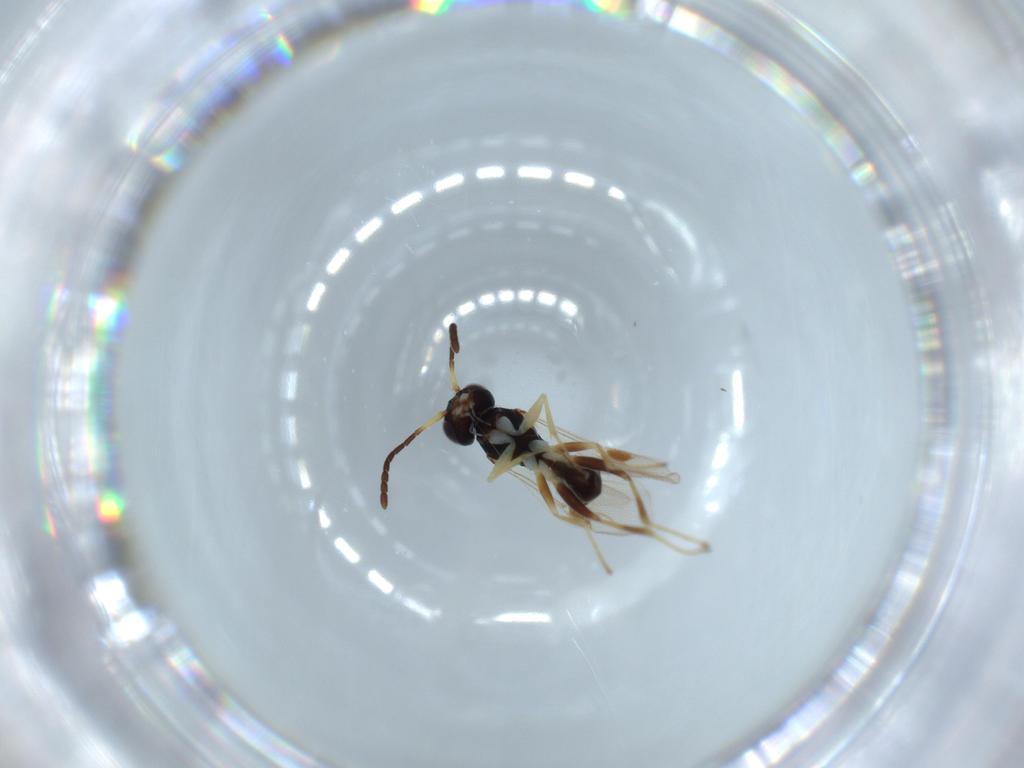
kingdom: Animalia
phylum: Arthropoda
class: Insecta
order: Hymenoptera
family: Dryinidae
